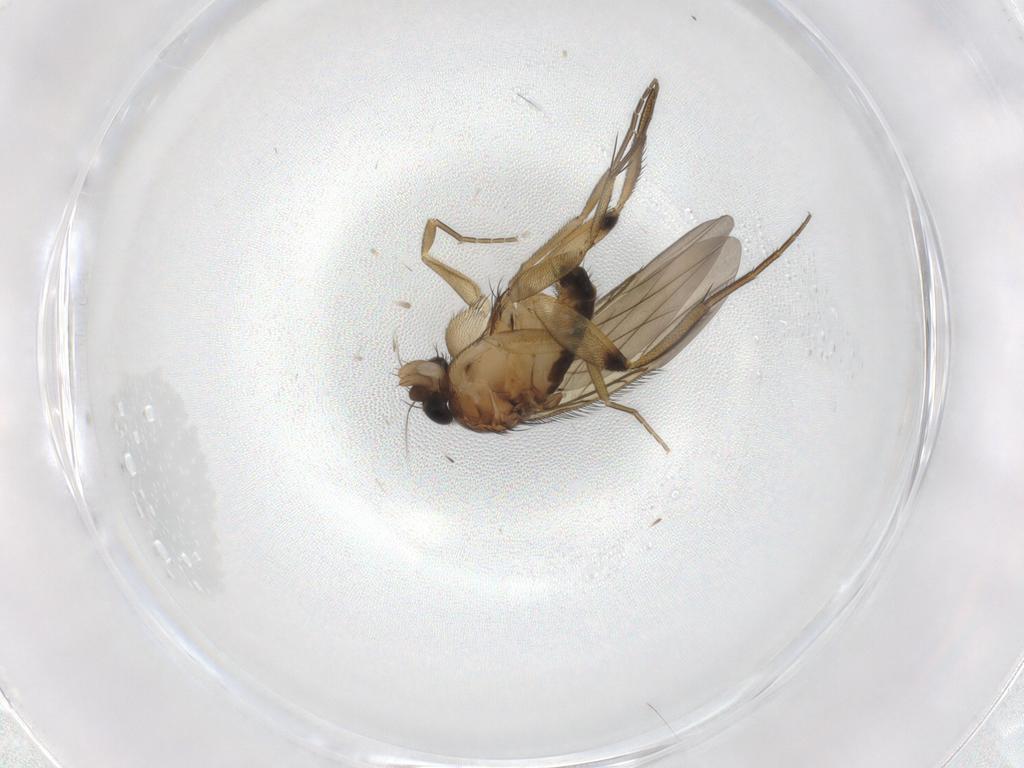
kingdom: Animalia
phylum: Arthropoda
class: Insecta
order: Diptera
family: Phoridae
